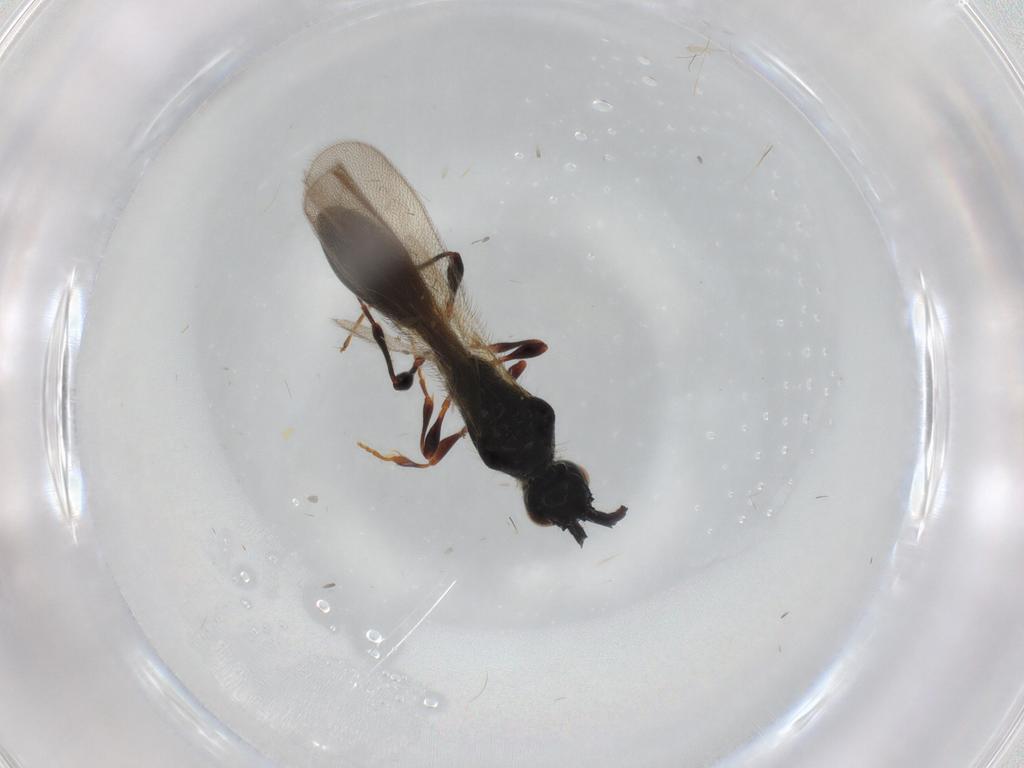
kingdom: Animalia
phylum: Arthropoda
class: Insecta
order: Hymenoptera
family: Diapriidae
